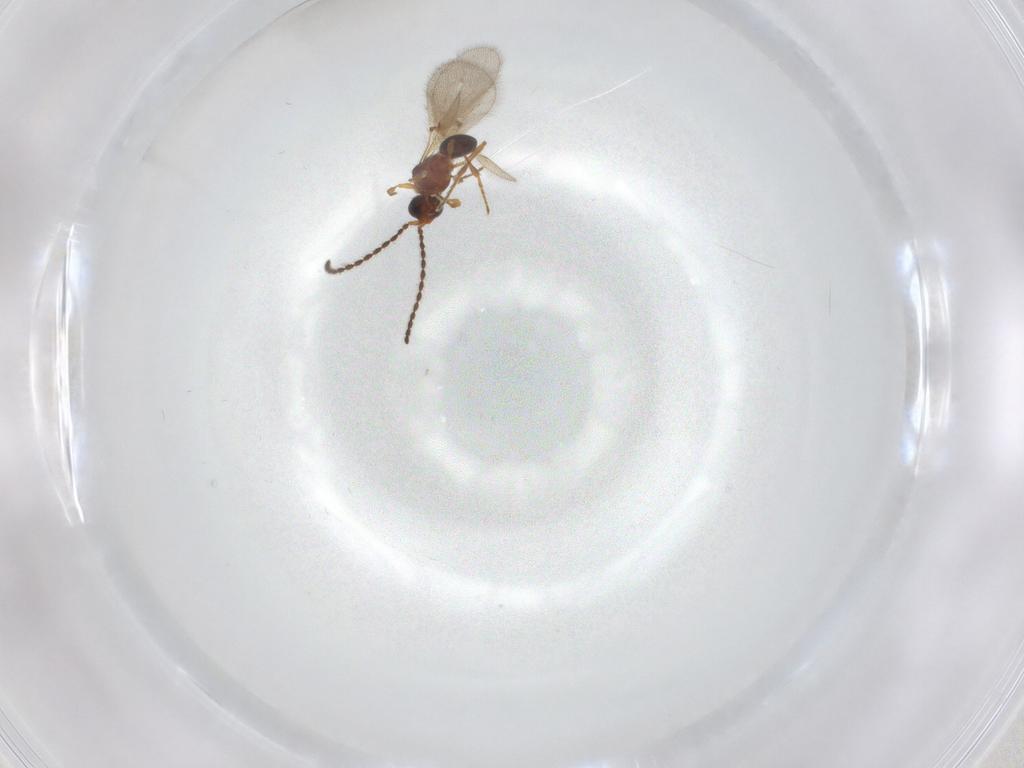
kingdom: Animalia
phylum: Arthropoda
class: Insecta
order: Hymenoptera
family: Diapriidae
